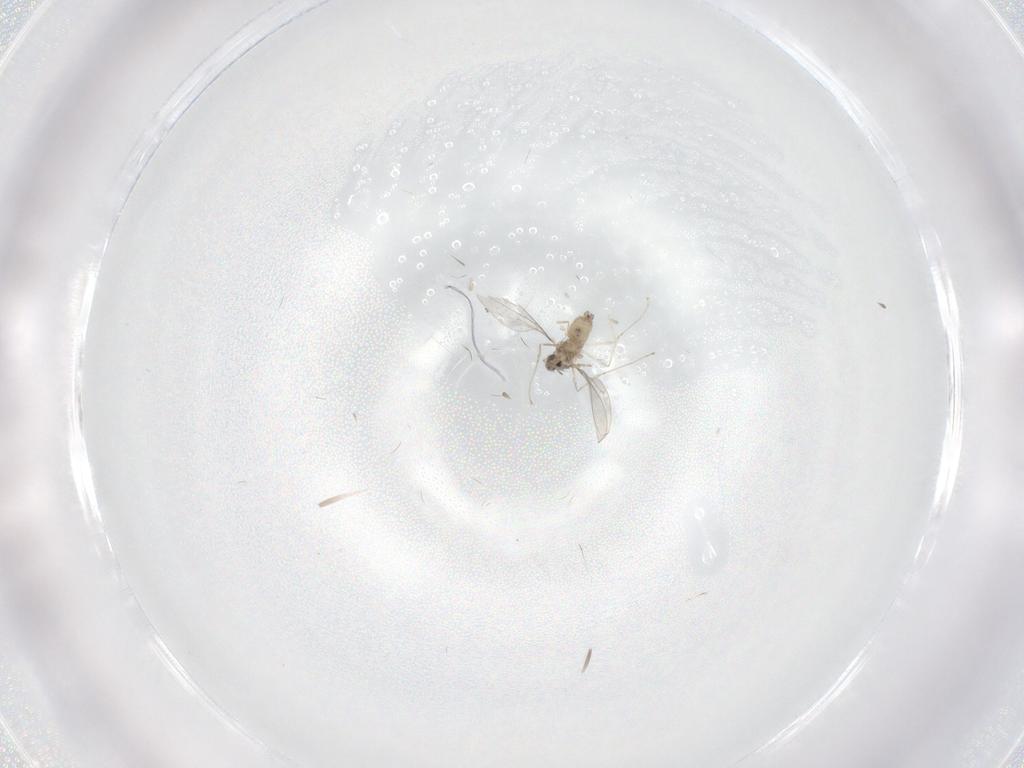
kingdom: Animalia
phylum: Arthropoda
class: Insecta
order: Diptera
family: Cecidomyiidae
